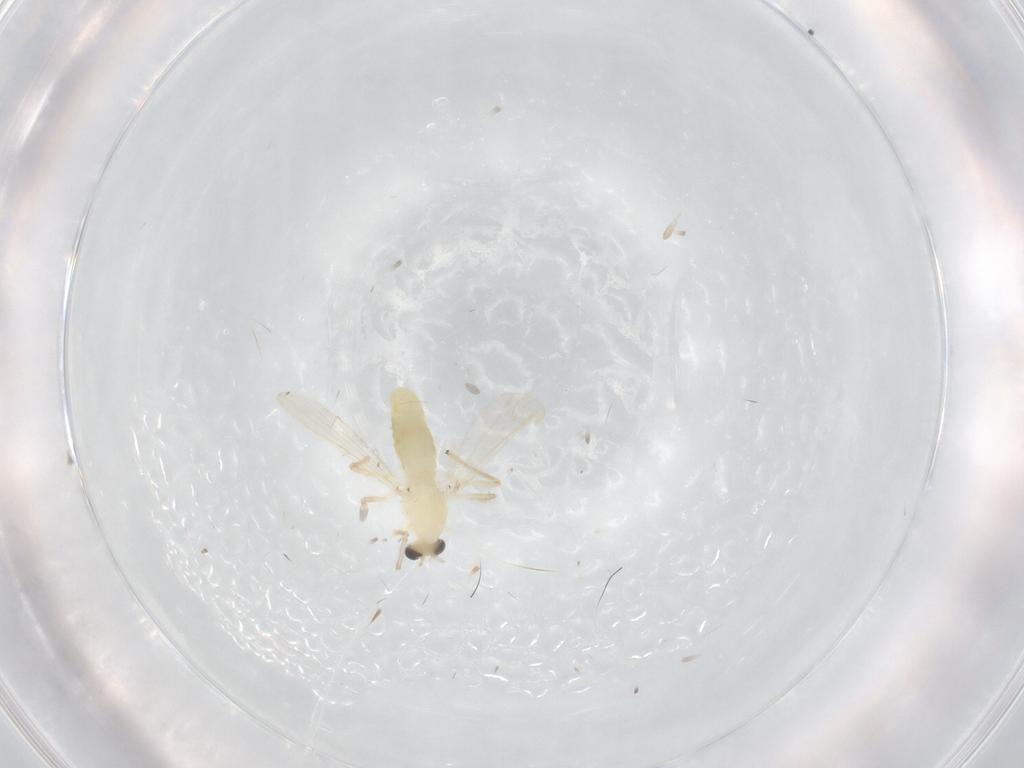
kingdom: Animalia
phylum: Arthropoda
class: Insecta
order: Diptera
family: Chironomidae
